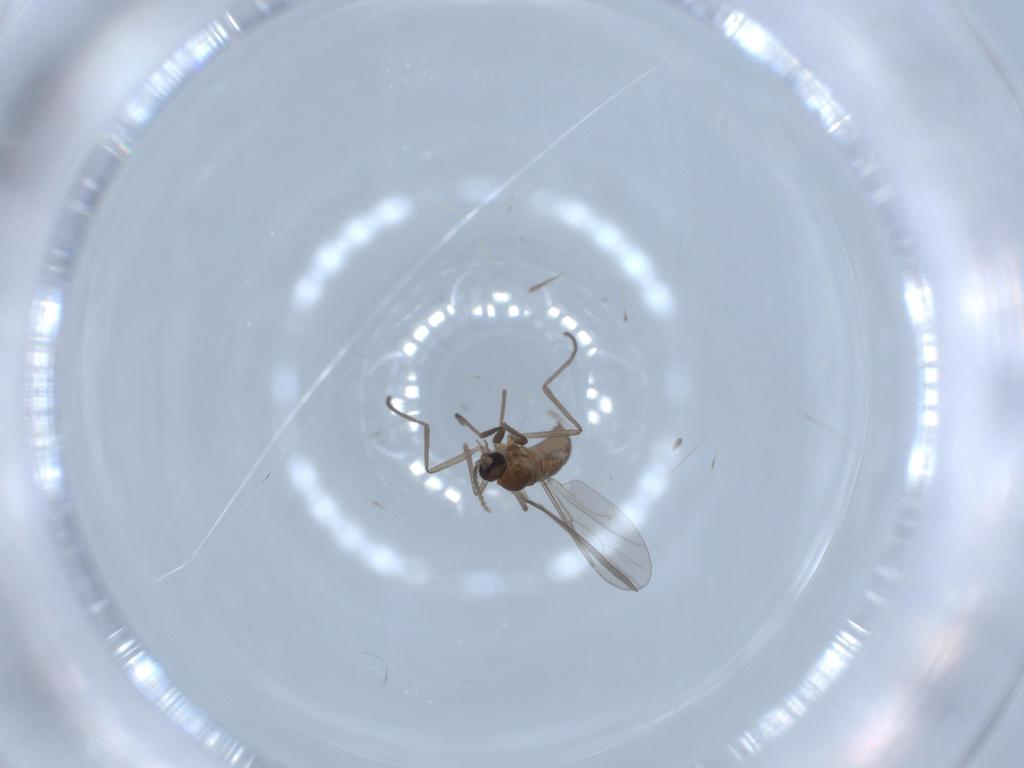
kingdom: Animalia
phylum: Arthropoda
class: Insecta
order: Diptera
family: Cecidomyiidae
